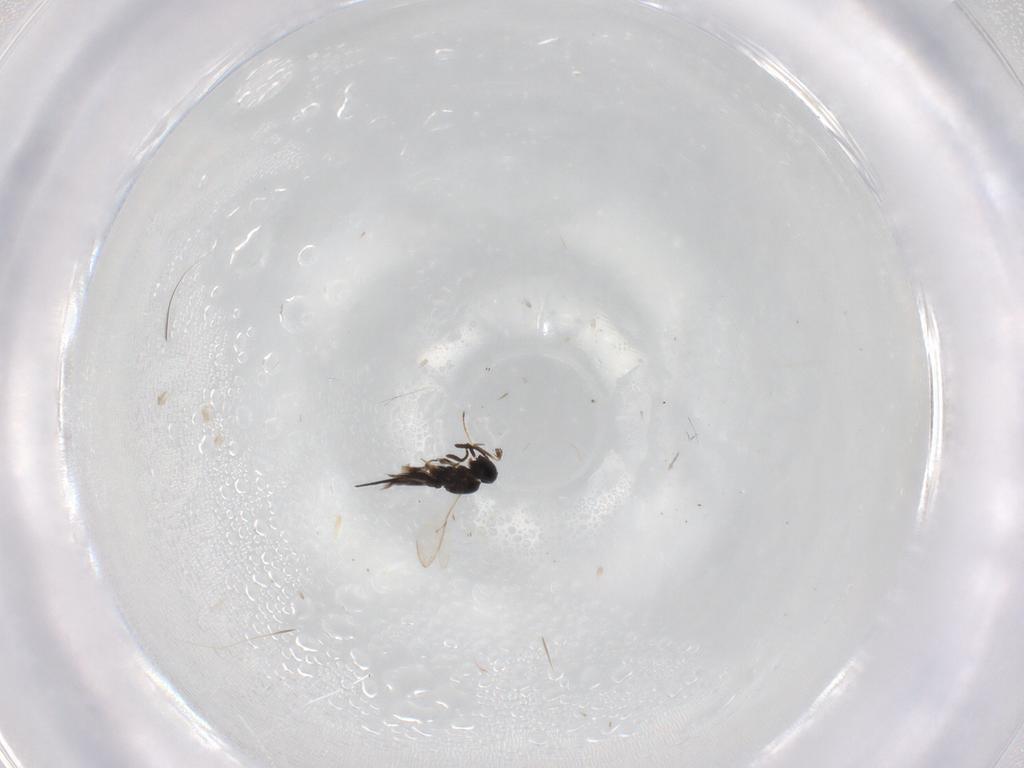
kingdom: Animalia
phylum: Arthropoda
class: Insecta
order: Hymenoptera
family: Scelionidae
